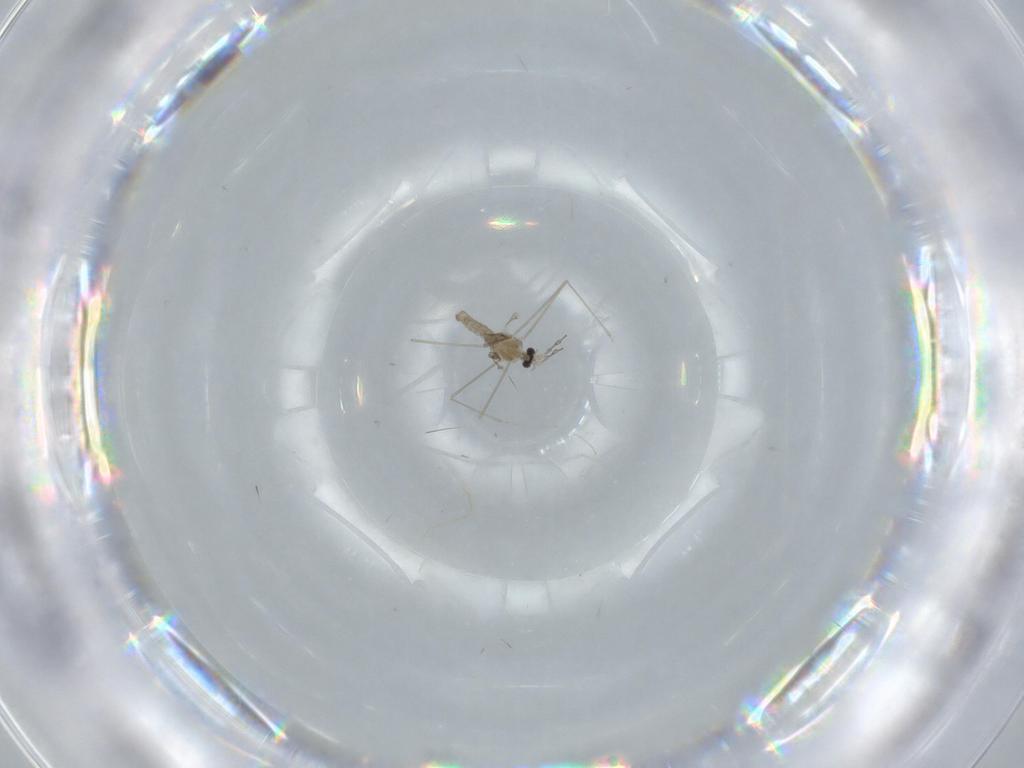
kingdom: Animalia
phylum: Arthropoda
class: Insecta
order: Diptera
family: Cecidomyiidae
